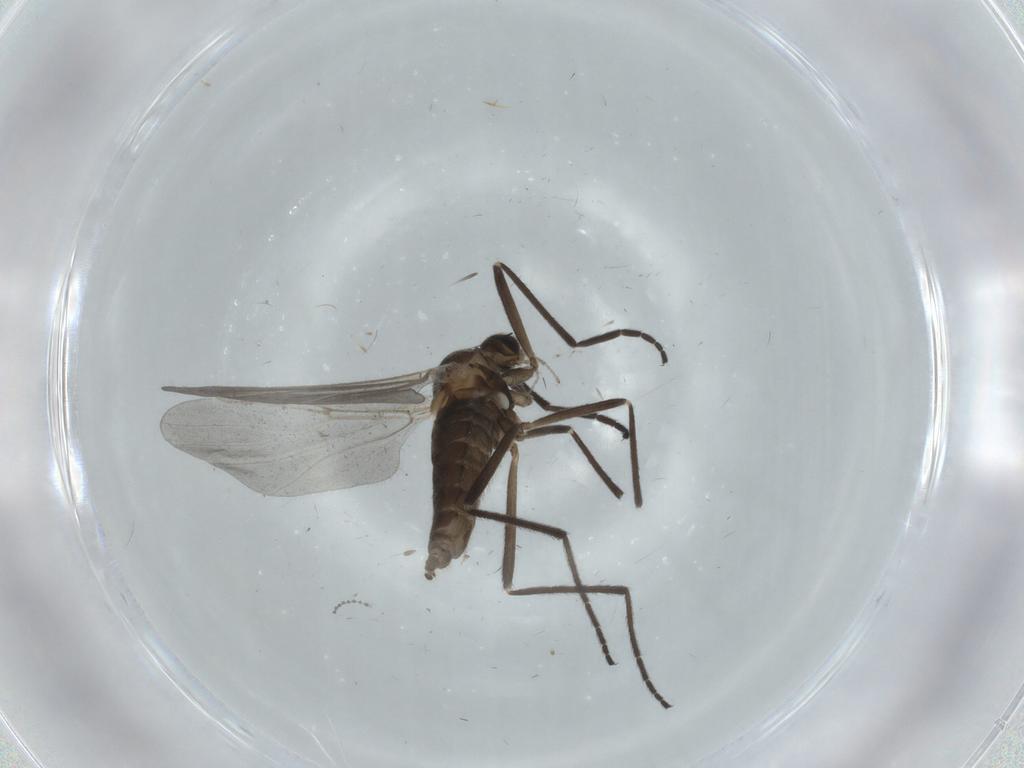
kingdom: Animalia
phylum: Arthropoda
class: Insecta
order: Diptera
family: Cecidomyiidae
